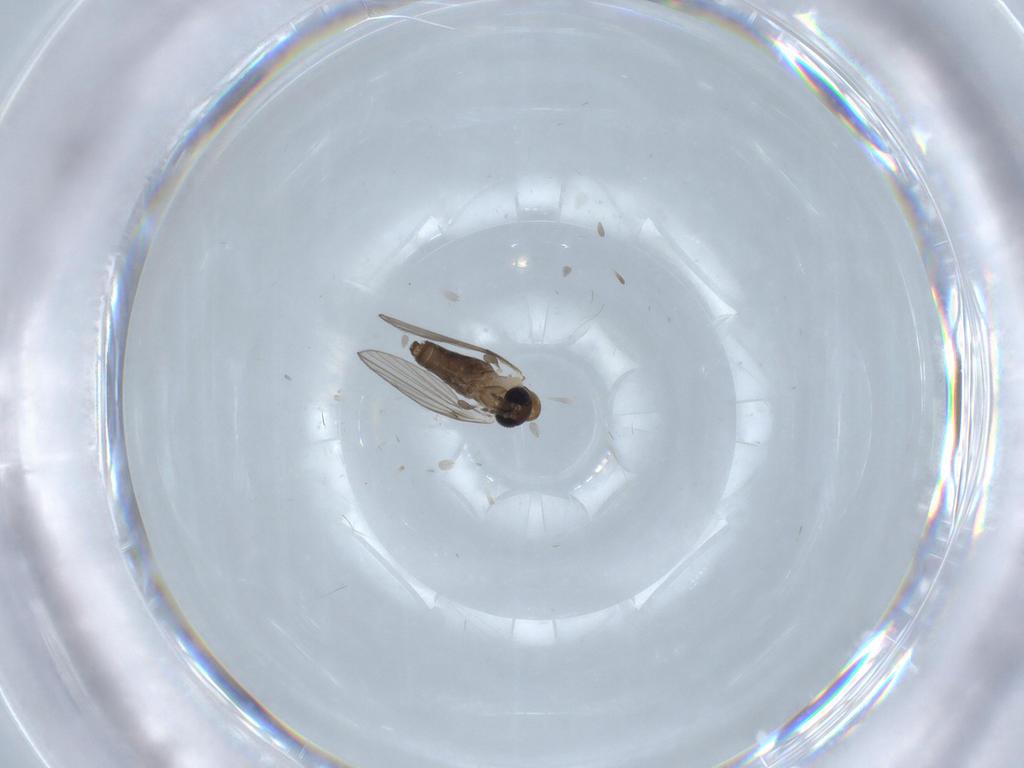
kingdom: Animalia
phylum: Arthropoda
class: Insecta
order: Diptera
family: Tabanidae
